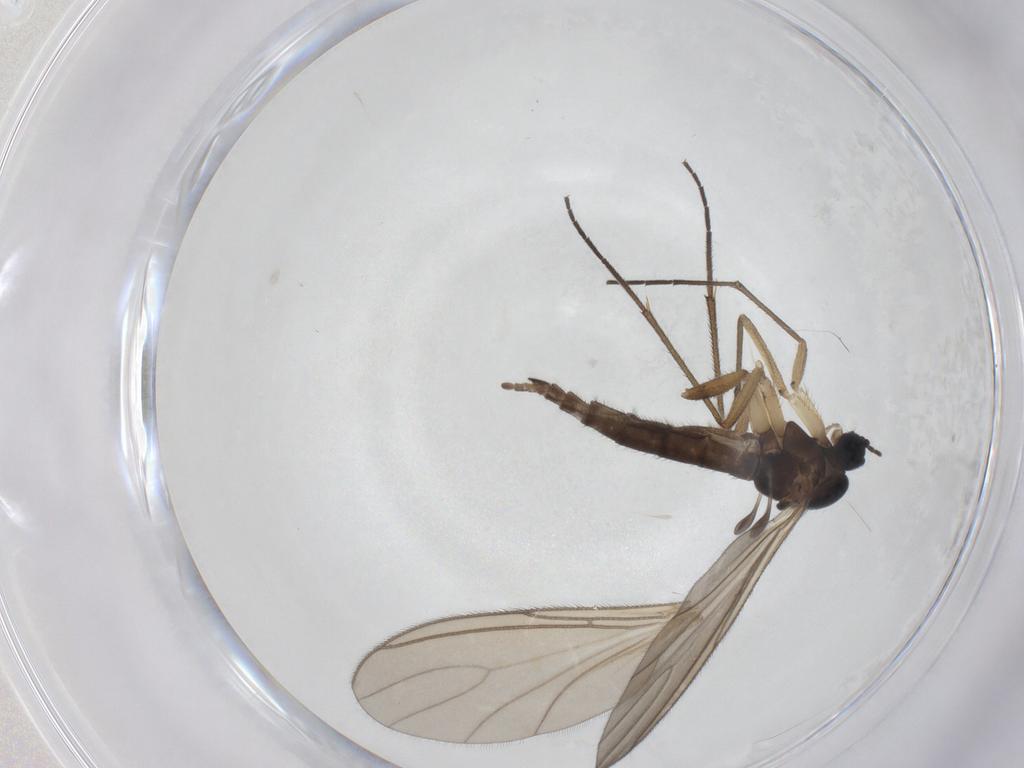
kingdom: Animalia
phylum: Arthropoda
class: Insecta
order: Diptera
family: Sciaridae
